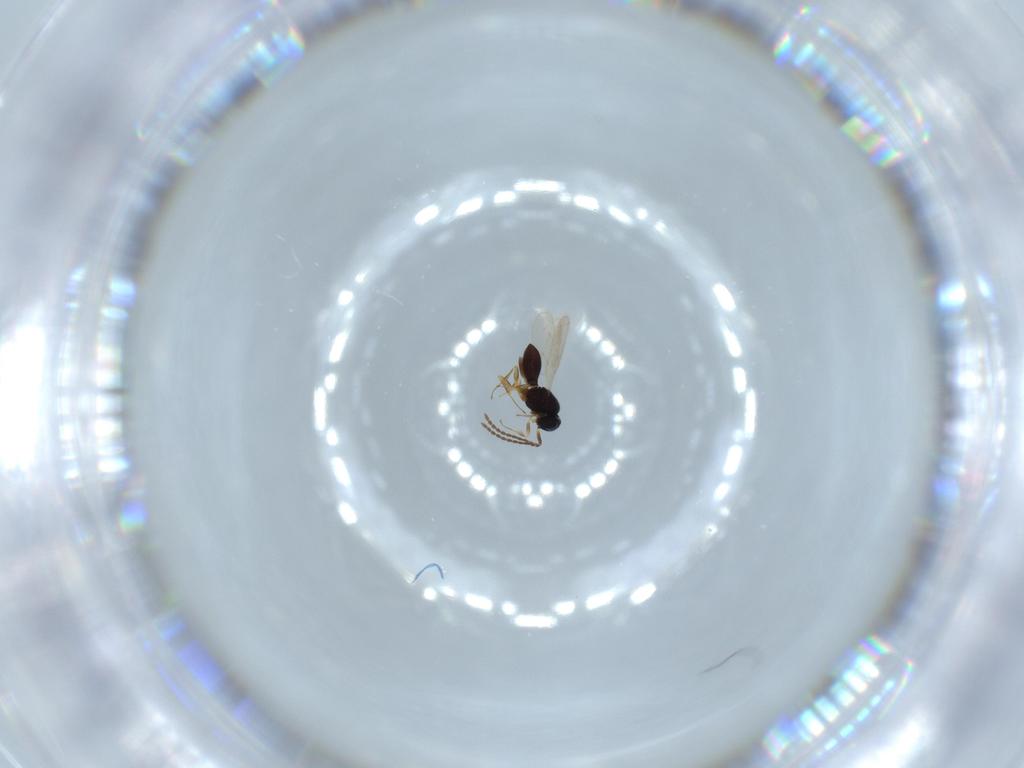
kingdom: Animalia
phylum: Arthropoda
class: Insecta
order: Hymenoptera
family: Scelionidae
